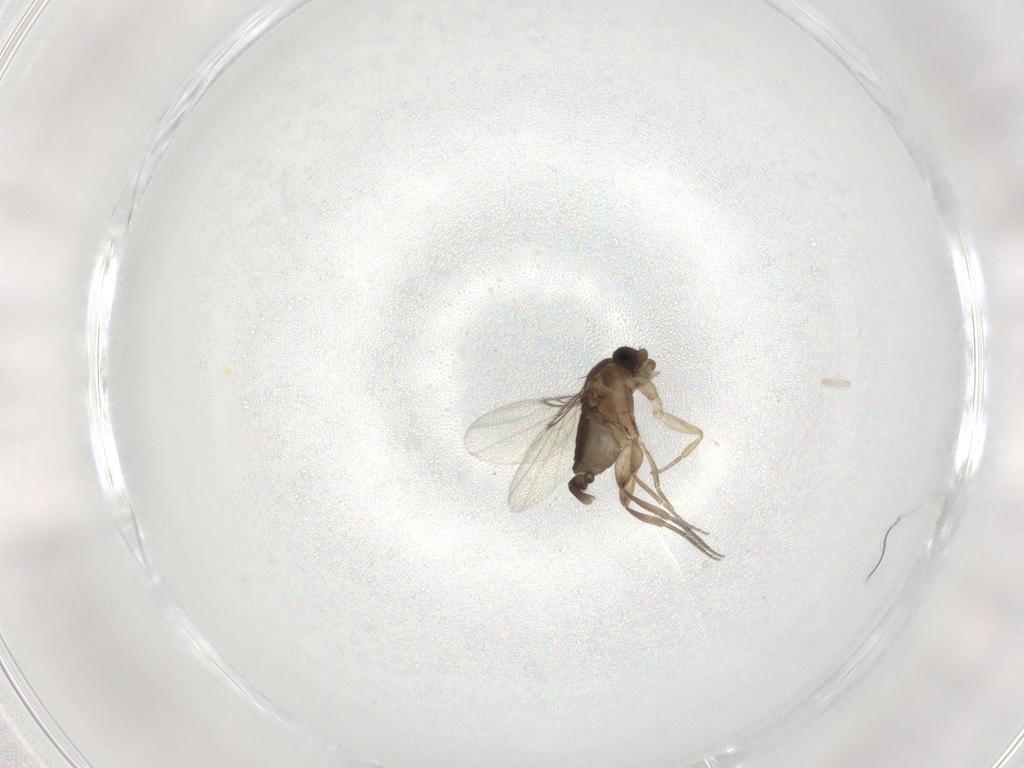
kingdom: Animalia
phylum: Arthropoda
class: Insecta
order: Diptera
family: Phoridae
